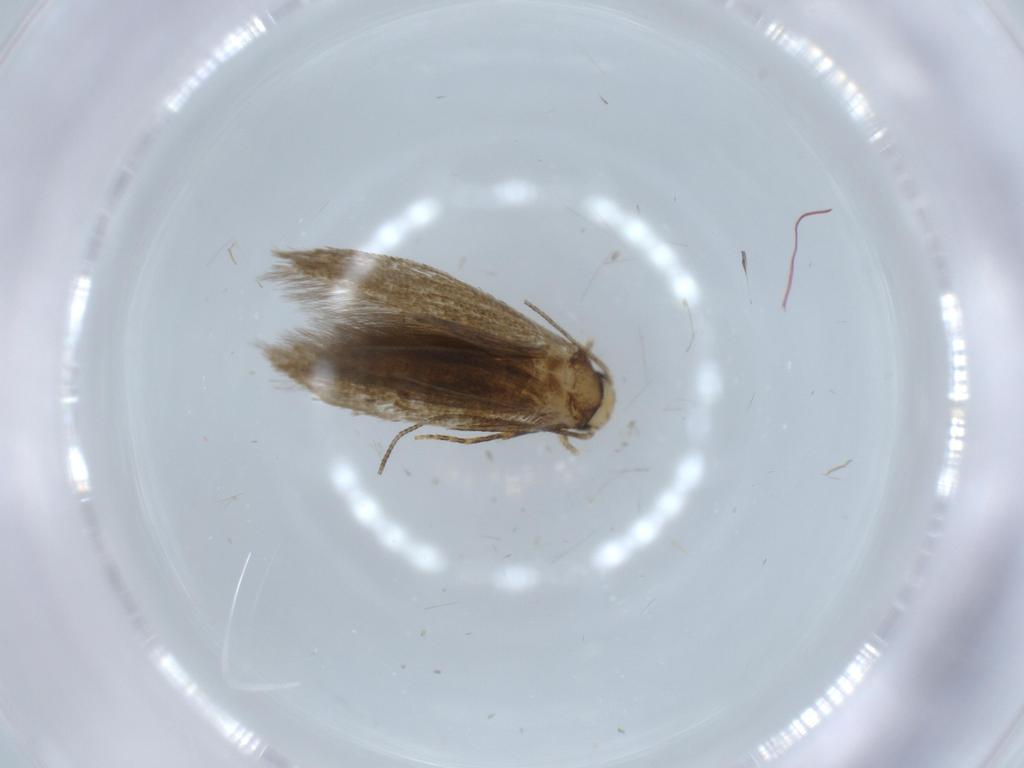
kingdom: Animalia
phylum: Arthropoda
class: Insecta
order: Lepidoptera
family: Tineidae
